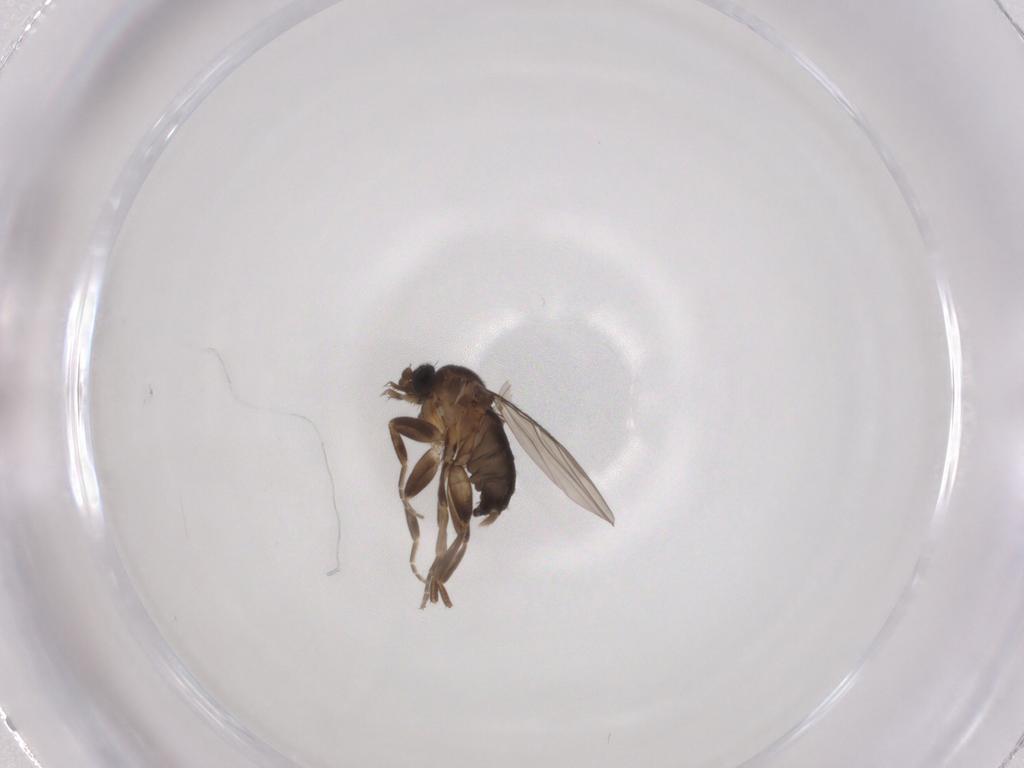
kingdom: Animalia
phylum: Arthropoda
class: Insecta
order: Diptera
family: Phoridae
